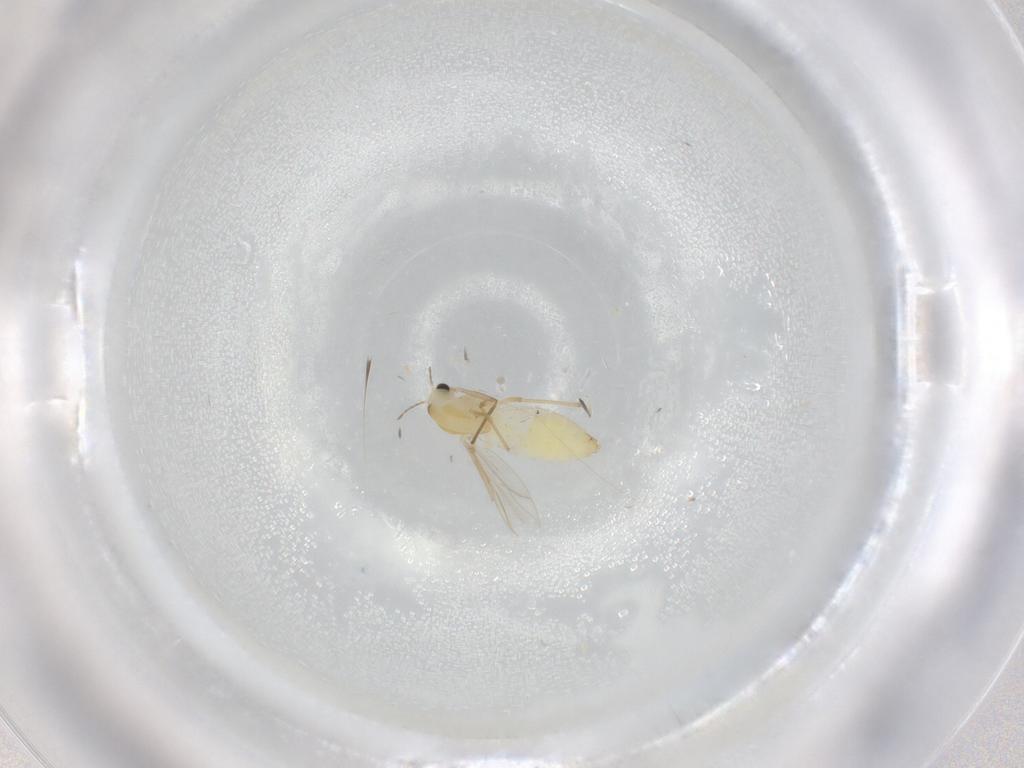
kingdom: Animalia
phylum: Arthropoda
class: Insecta
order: Diptera
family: Chironomidae
